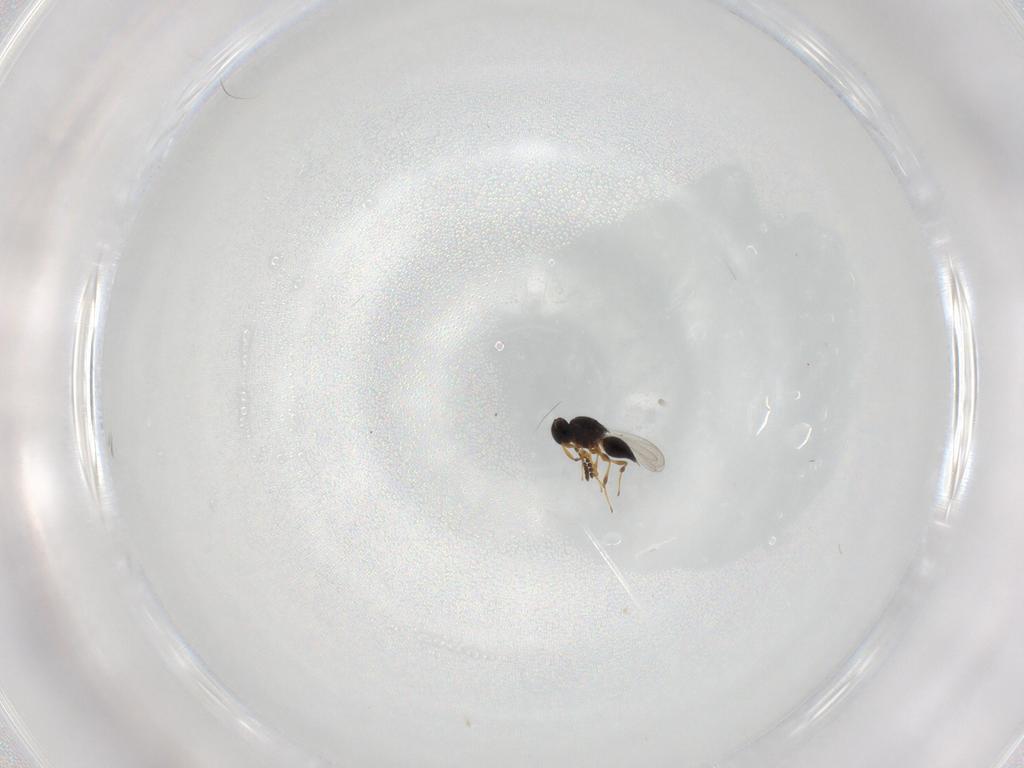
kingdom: Animalia
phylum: Arthropoda
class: Insecta
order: Hymenoptera
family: Platygastridae
